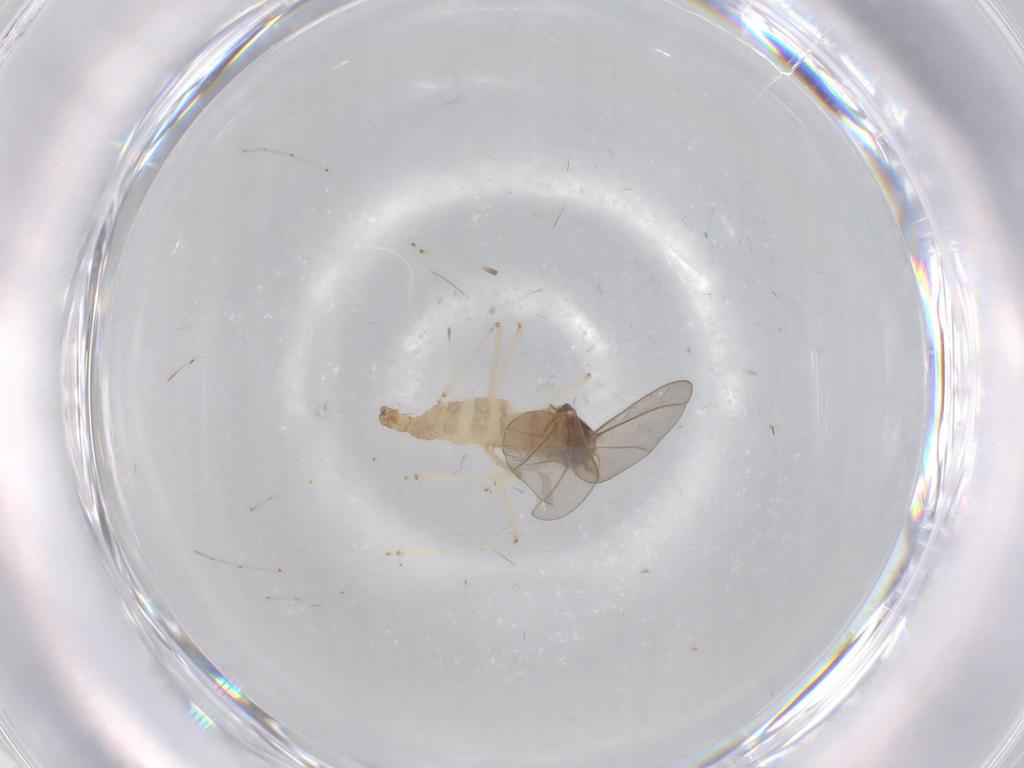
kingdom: Animalia
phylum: Arthropoda
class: Insecta
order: Diptera
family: Cecidomyiidae
